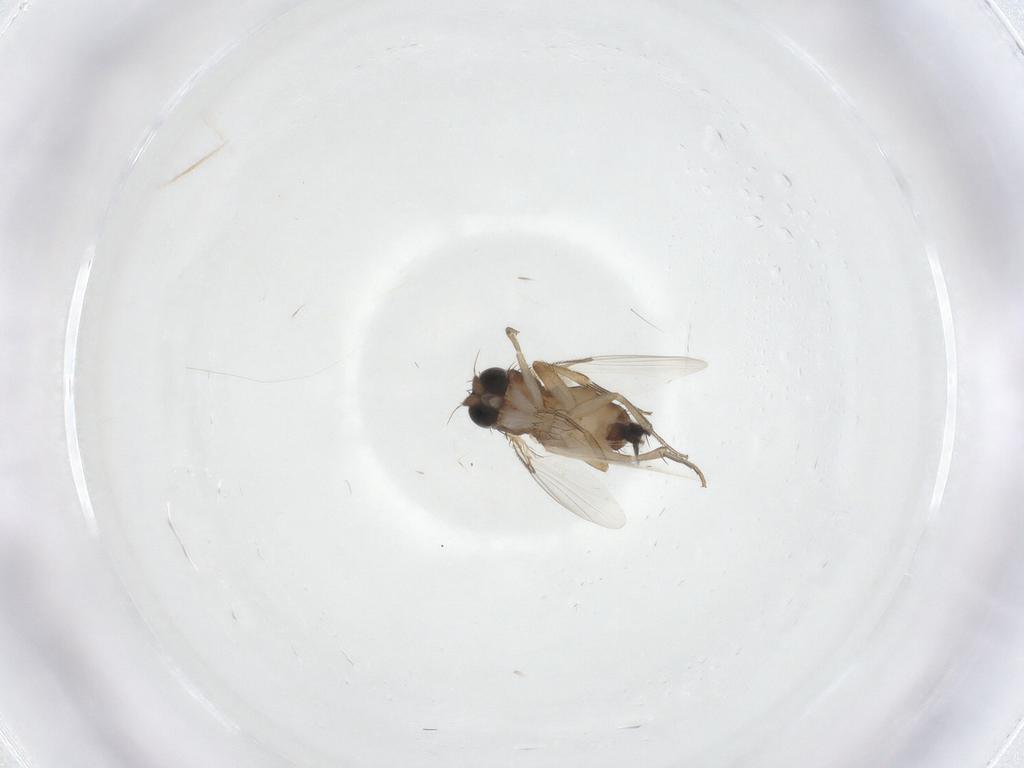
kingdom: Animalia
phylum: Arthropoda
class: Insecta
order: Diptera
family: Phoridae
